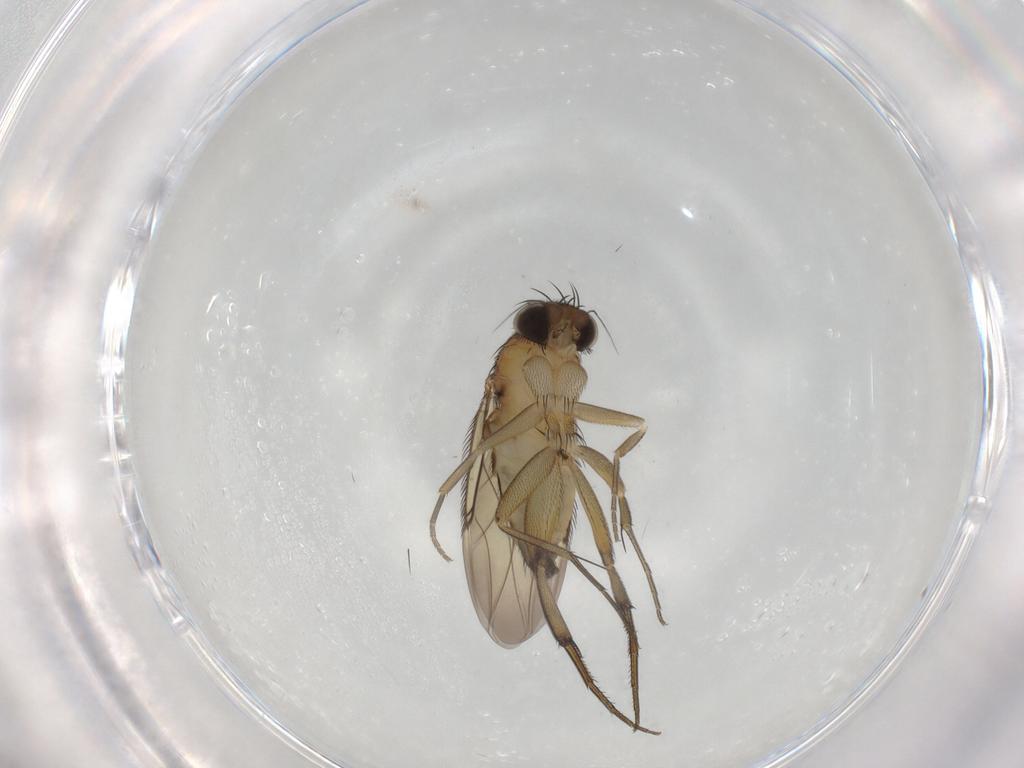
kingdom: Animalia
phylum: Arthropoda
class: Insecta
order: Diptera
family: Phoridae
